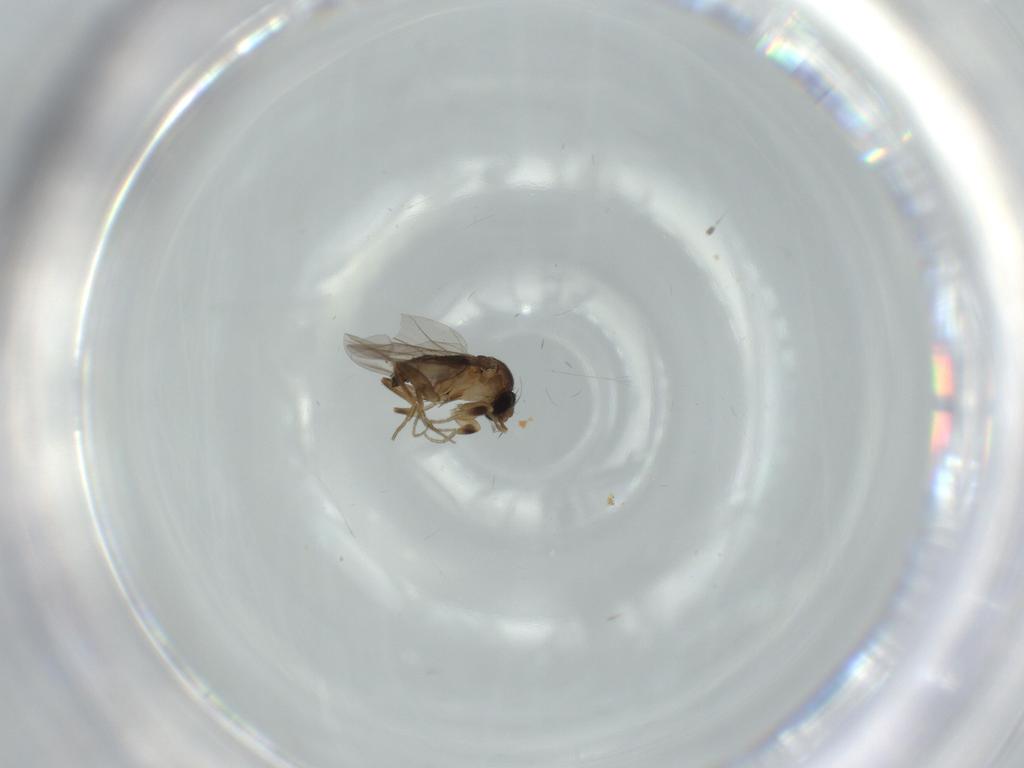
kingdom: Animalia
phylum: Arthropoda
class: Insecta
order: Diptera
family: Phoridae
